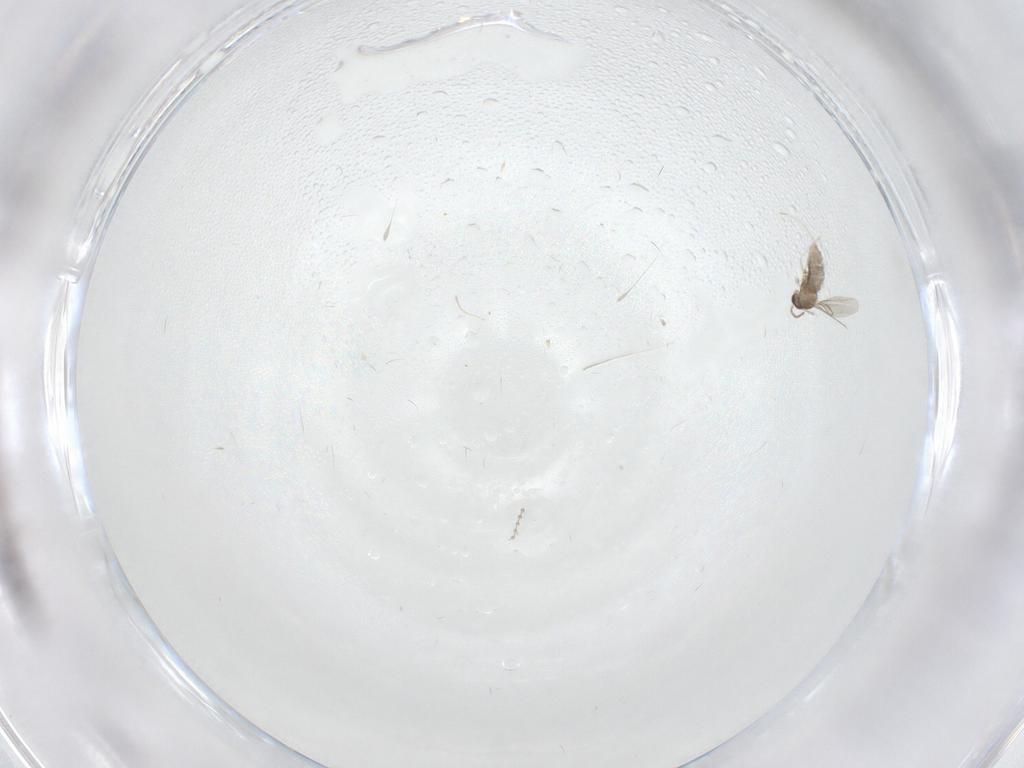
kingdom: Animalia
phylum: Arthropoda
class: Insecta
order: Diptera
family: Cecidomyiidae
